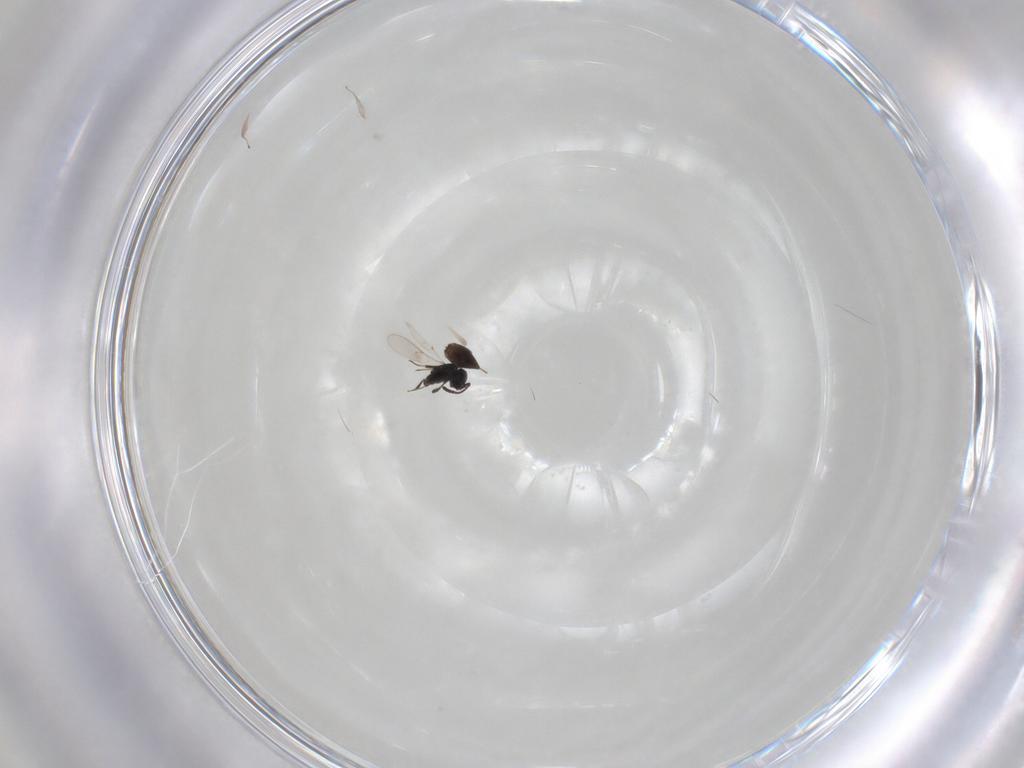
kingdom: Animalia
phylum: Arthropoda
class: Insecta
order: Hymenoptera
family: Scelionidae
